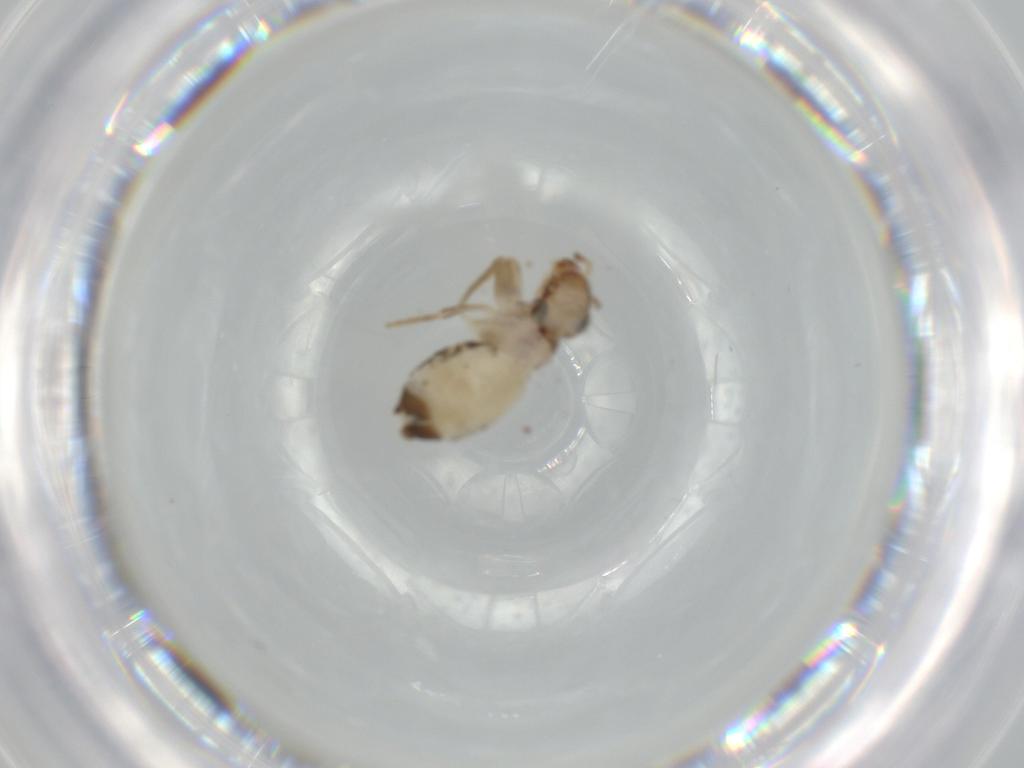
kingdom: Animalia
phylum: Arthropoda
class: Insecta
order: Psocodea
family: Lepidopsocidae
